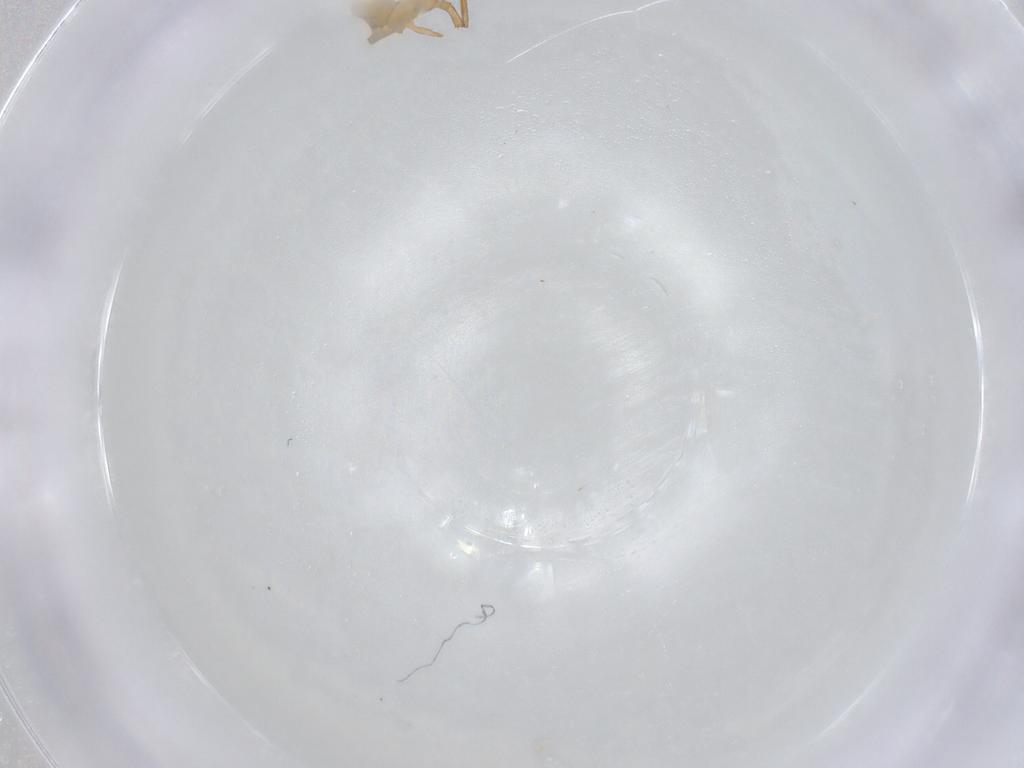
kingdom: Animalia
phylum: Arthropoda
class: Collembola
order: Entomobryomorpha
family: Entomobryidae
